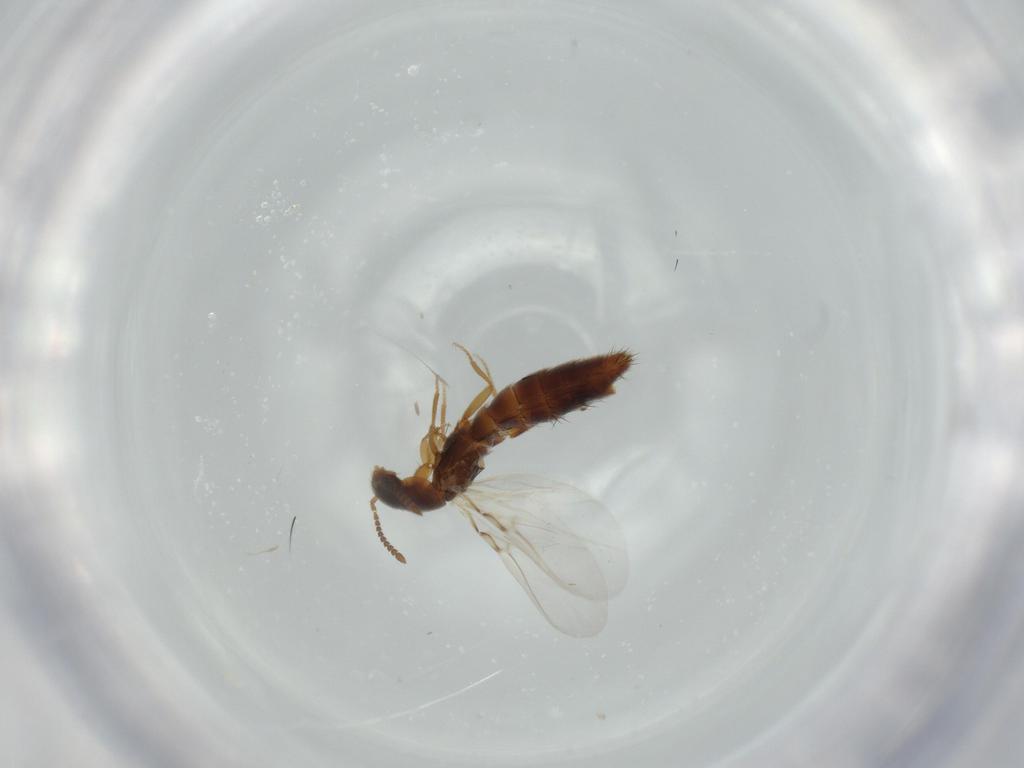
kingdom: Animalia
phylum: Arthropoda
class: Insecta
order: Coleoptera
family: Staphylinidae
